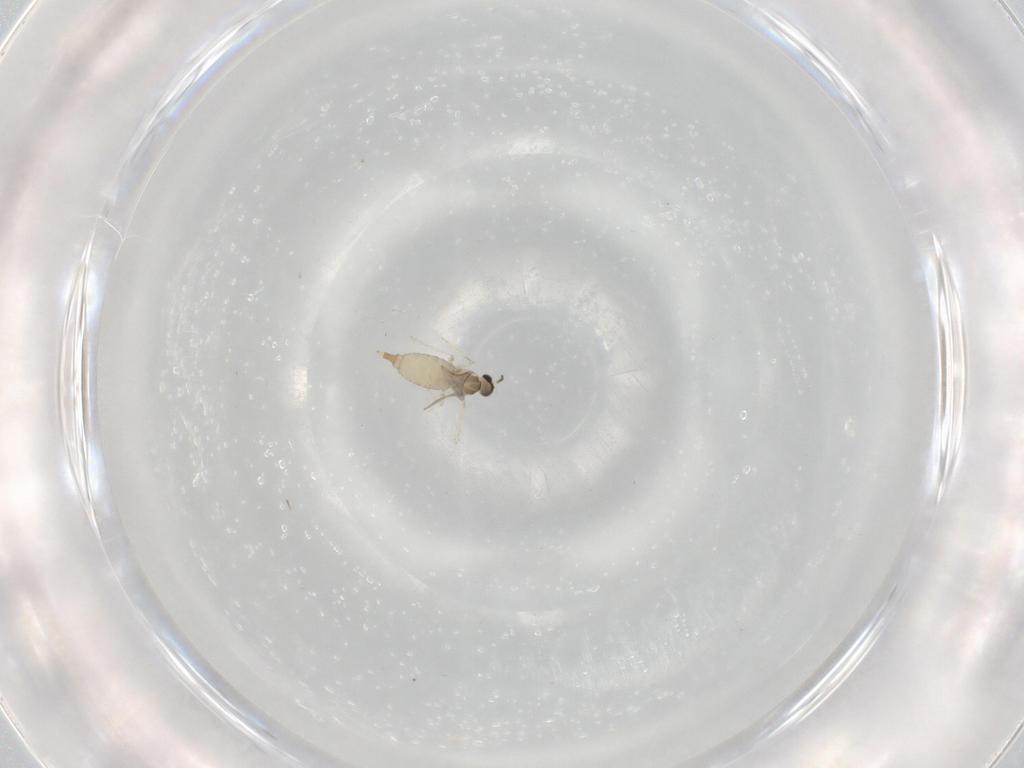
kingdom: Animalia
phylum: Arthropoda
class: Insecta
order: Diptera
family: Cecidomyiidae
